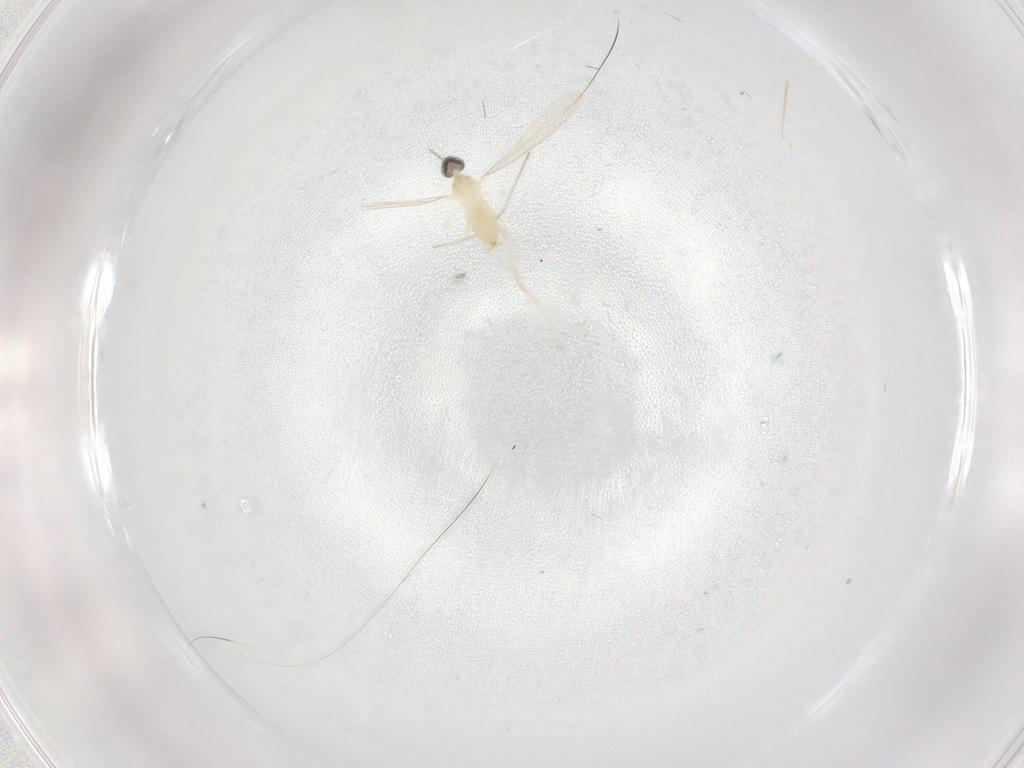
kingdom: Animalia
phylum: Arthropoda
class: Insecta
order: Diptera
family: Cecidomyiidae
